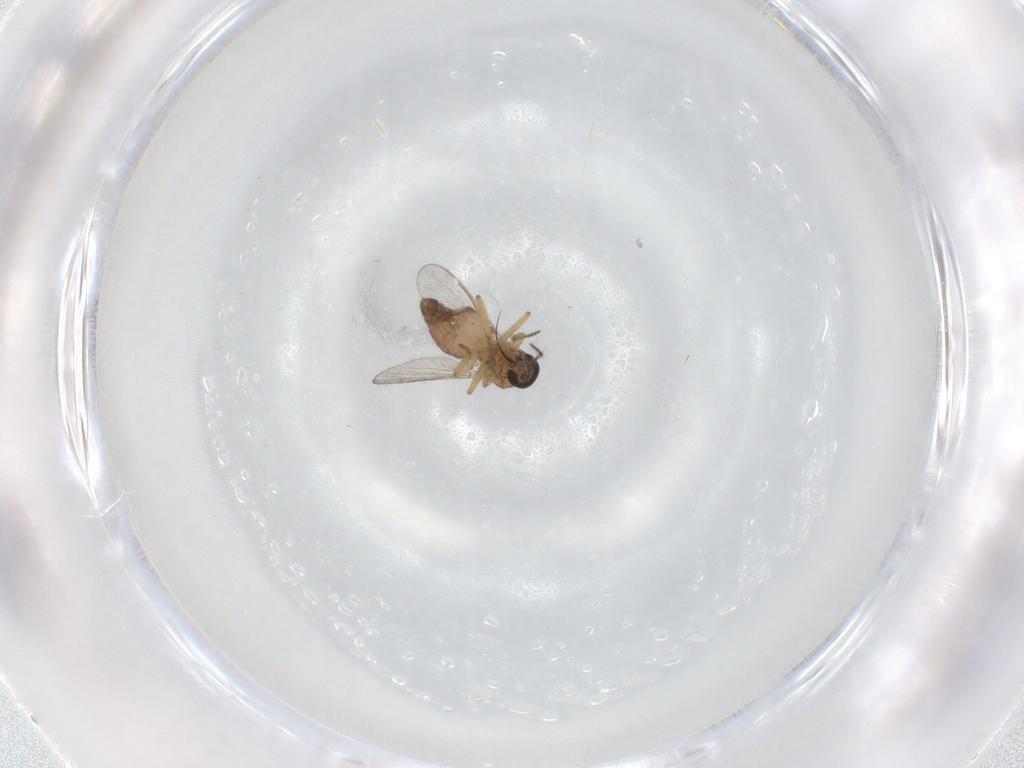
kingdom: Animalia
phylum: Arthropoda
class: Insecta
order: Diptera
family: Ceratopogonidae
